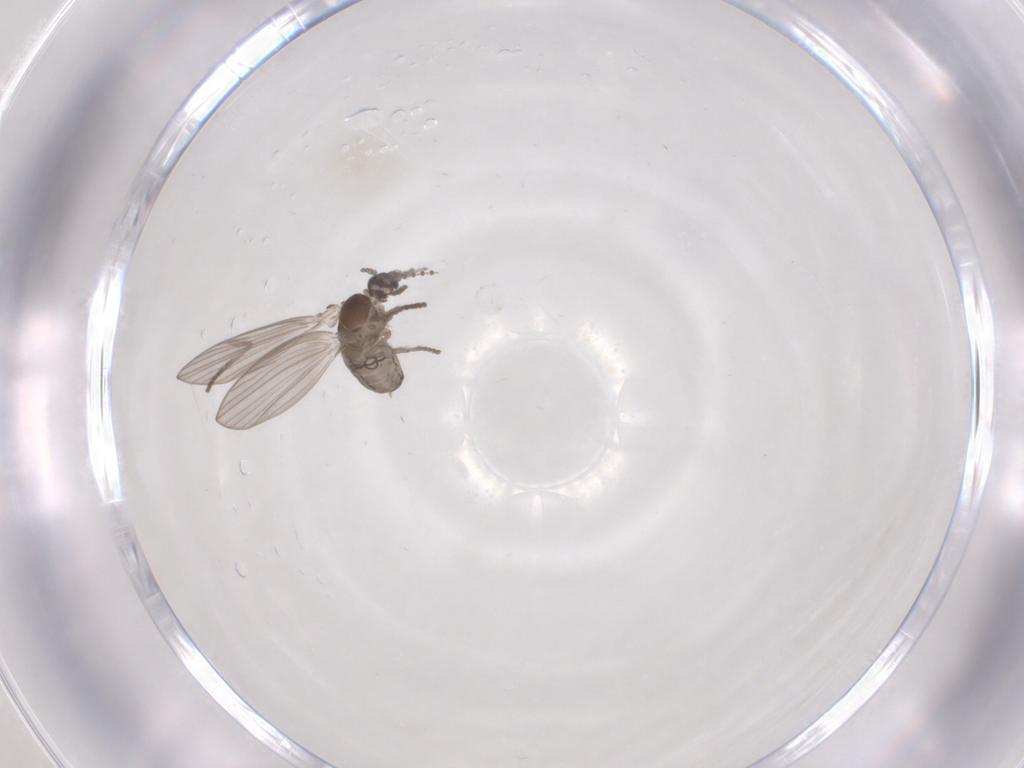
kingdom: Animalia
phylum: Arthropoda
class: Insecta
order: Diptera
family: Psychodidae
